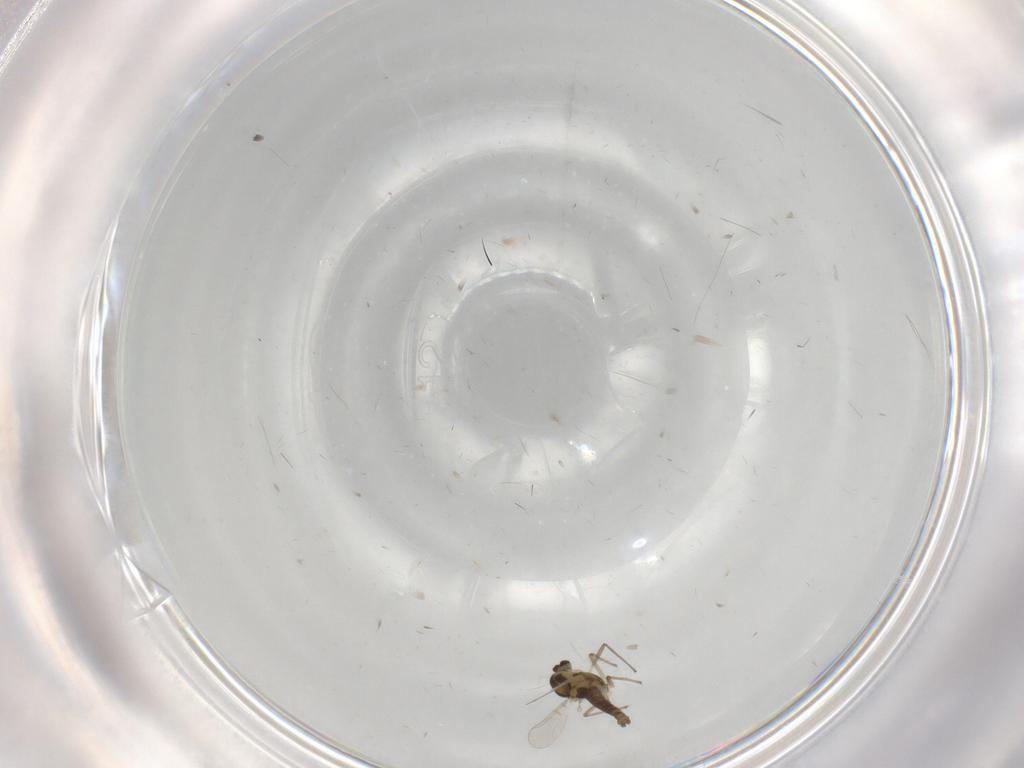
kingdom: Animalia
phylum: Arthropoda
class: Insecta
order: Diptera
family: Chironomidae
